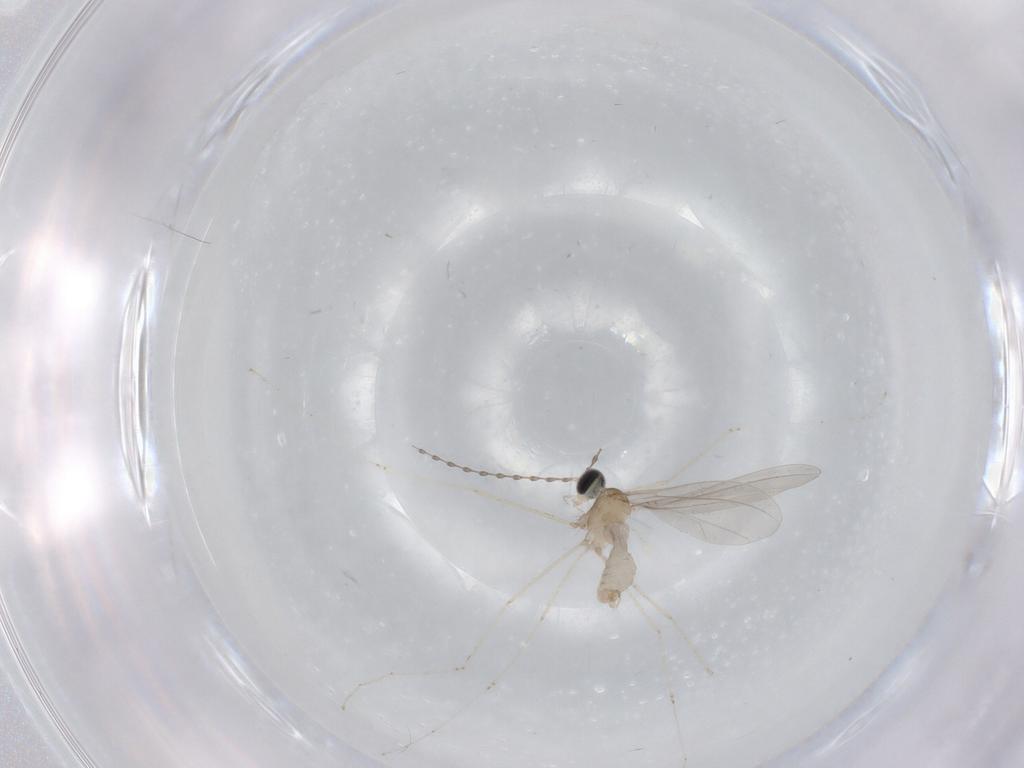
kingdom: Animalia
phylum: Arthropoda
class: Insecta
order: Diptera
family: Cecidomyiidae
